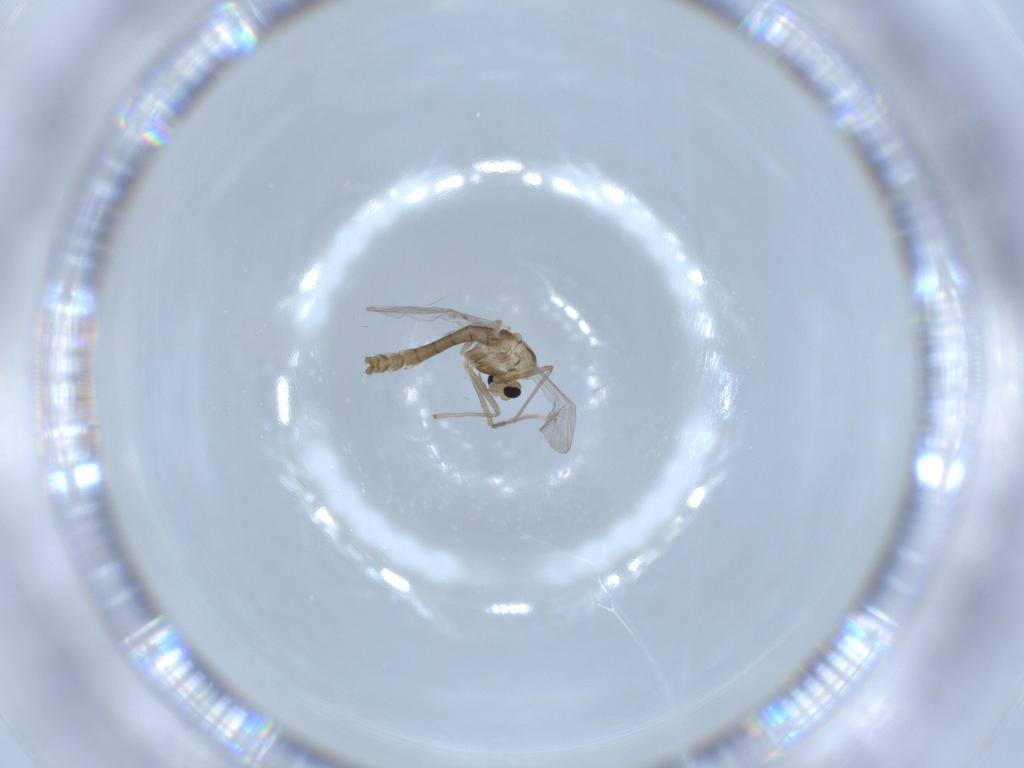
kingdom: Animalia
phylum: Arthropoda
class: Insecta
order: Diptera
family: Chironomidae
